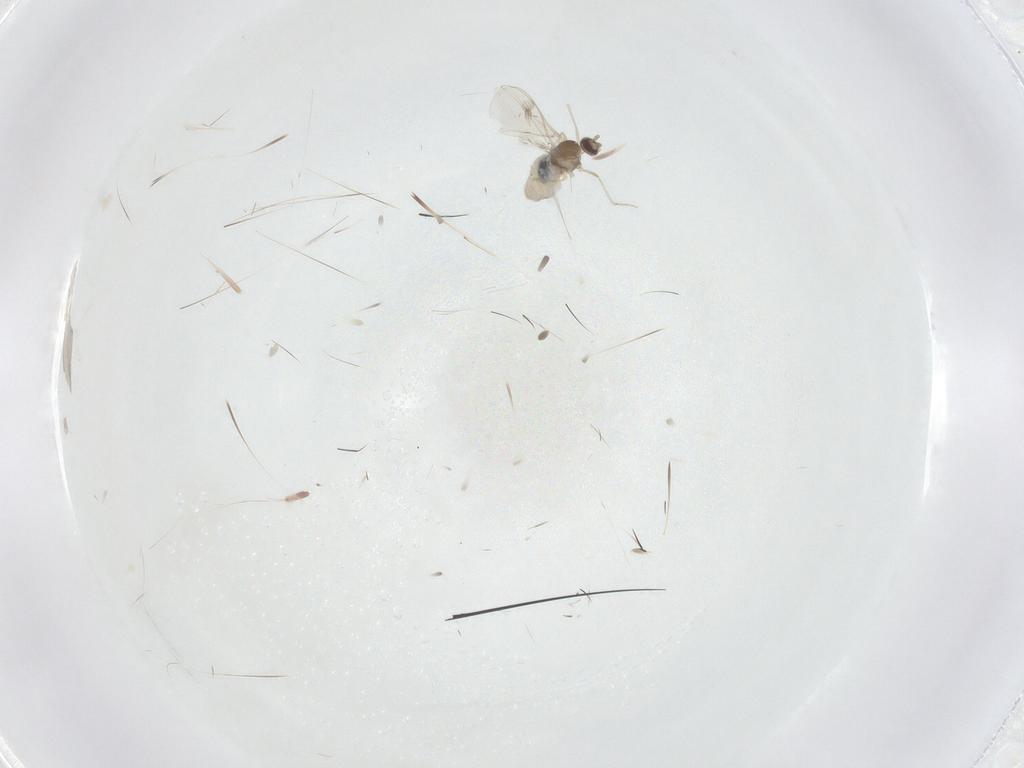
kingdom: Animalia
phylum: Arthropoda
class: Insecta
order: Diptera
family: Cecidomyiidae
